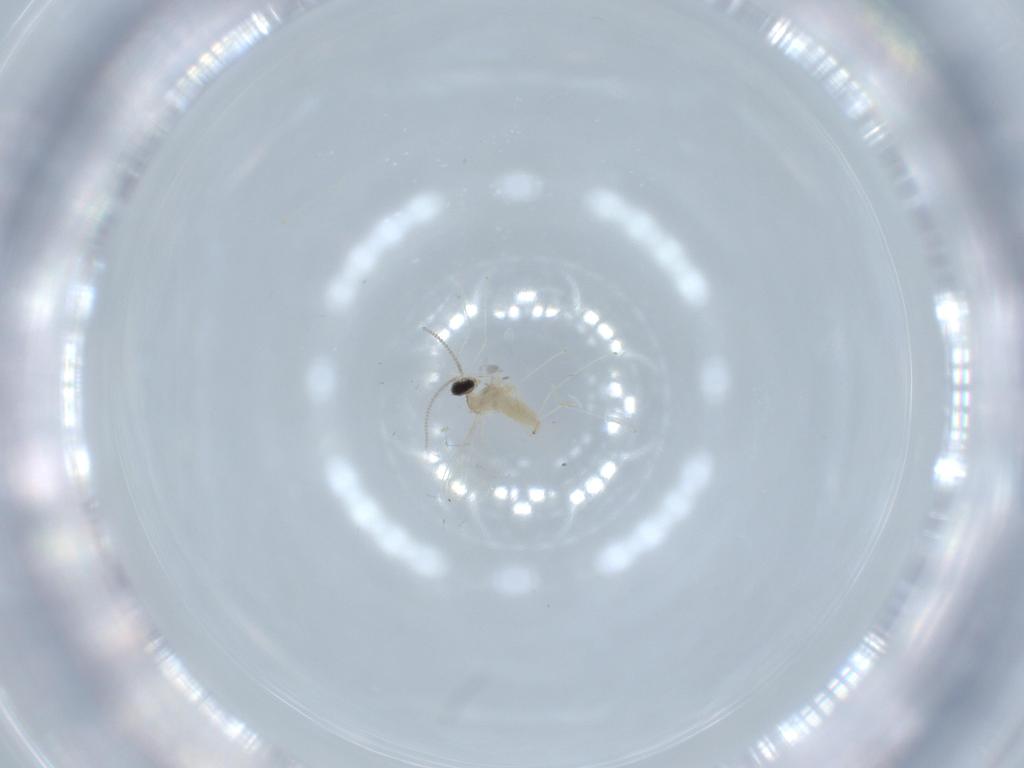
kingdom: Animalia
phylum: Arthropoda
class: Insecta
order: Diptera
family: Cecidomyiidae
